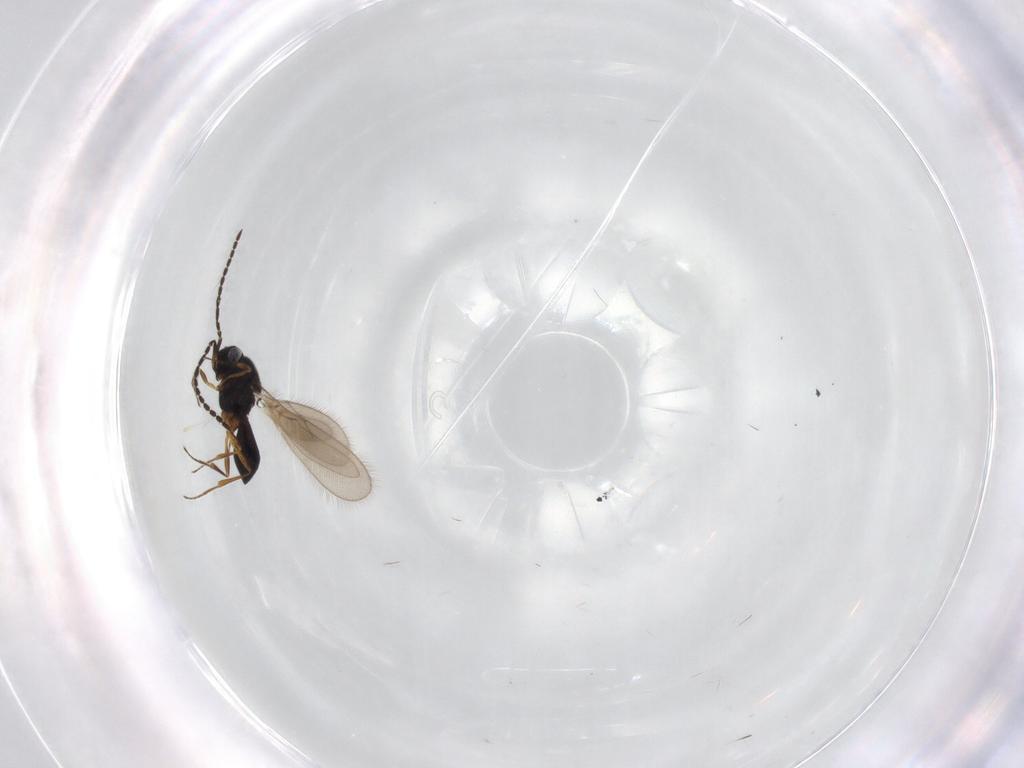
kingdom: Animalia
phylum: Arthropoda
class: Insecta
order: Hymenoptera
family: Scelionidae
